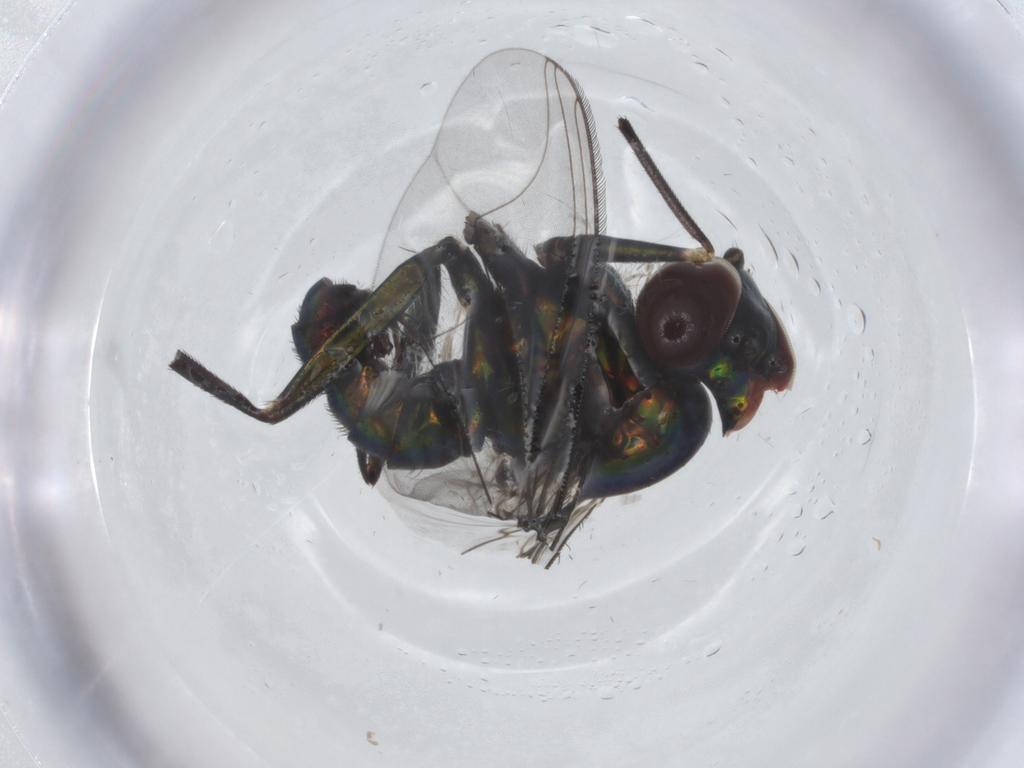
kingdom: Animalia
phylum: Arthropoda
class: Insecta
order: Diptera
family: Dolichopodidae
